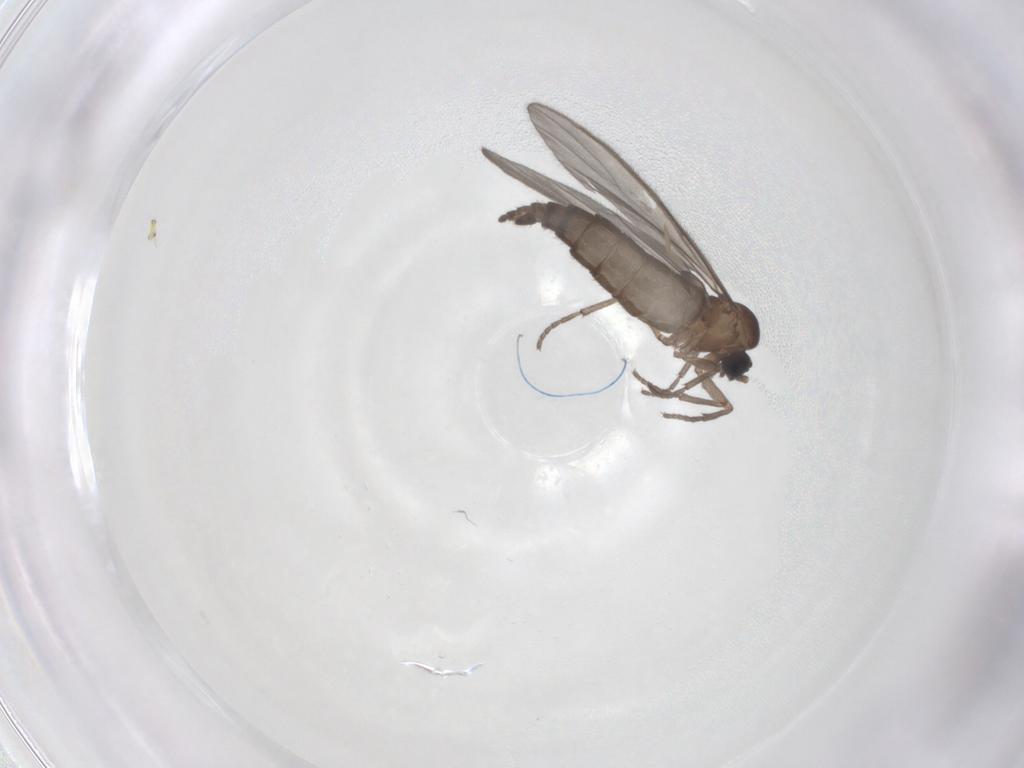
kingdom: Animalia
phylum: Arthropoda
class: Insecta
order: Diptera
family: Sciaridae
